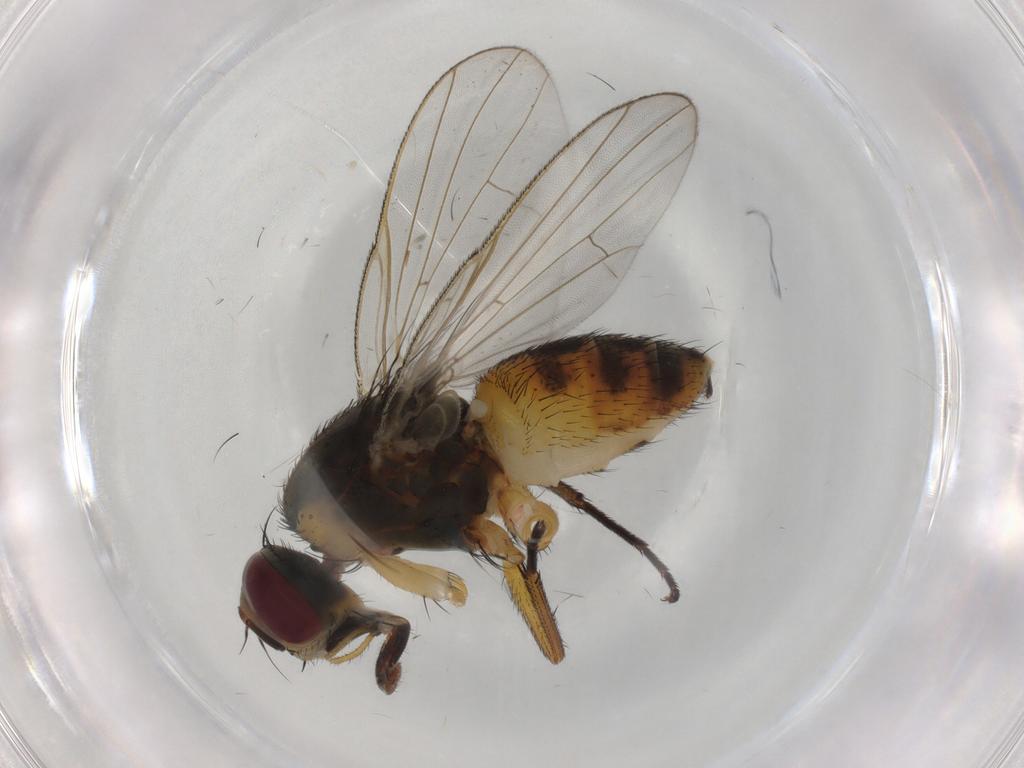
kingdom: Animalia
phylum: Arthropoda
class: Insecta
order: Diptera
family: Muscidae
